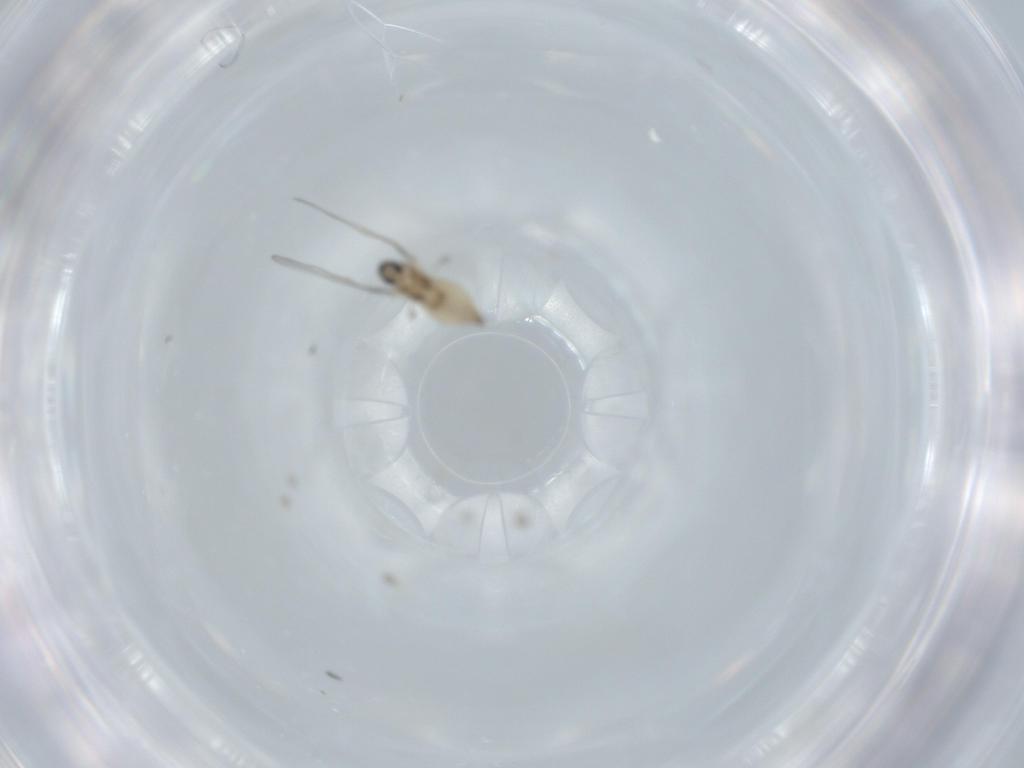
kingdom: Animalia
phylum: Arthropoda
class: Insecta
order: Diptera
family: Cecidomyiidae
